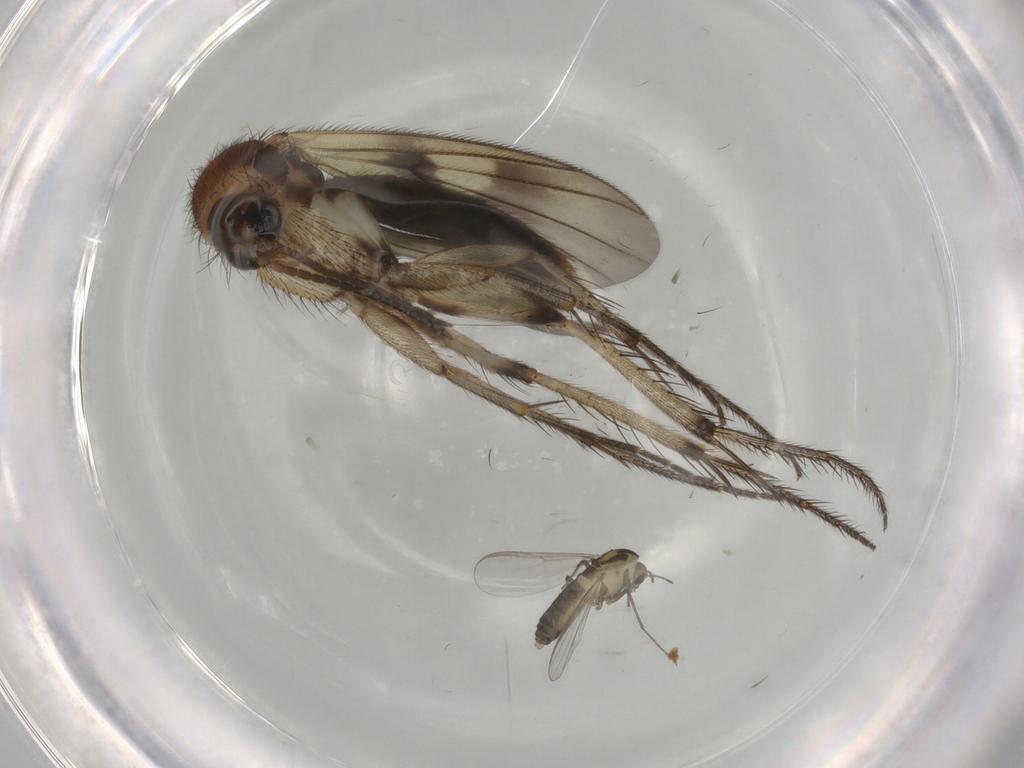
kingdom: Animalia
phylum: Arthropoda
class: Insecta
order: Diptera
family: Chironomidae
